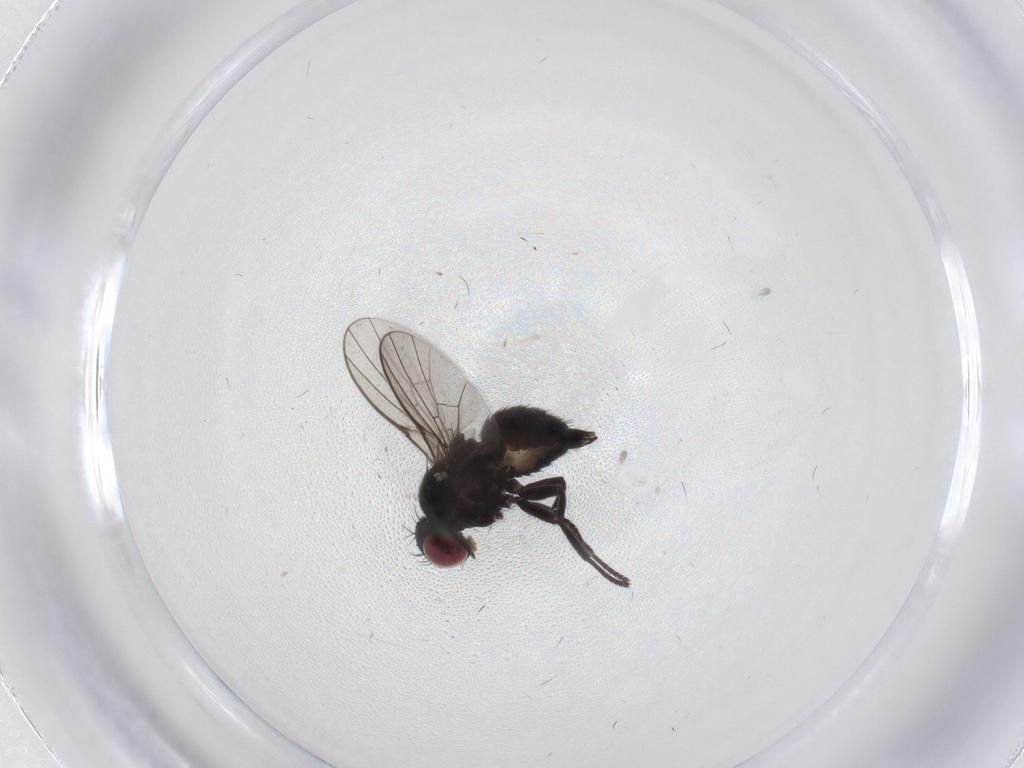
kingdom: Animalia
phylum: Arthropoda
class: Insecta
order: Diptera
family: Agromyzidae
